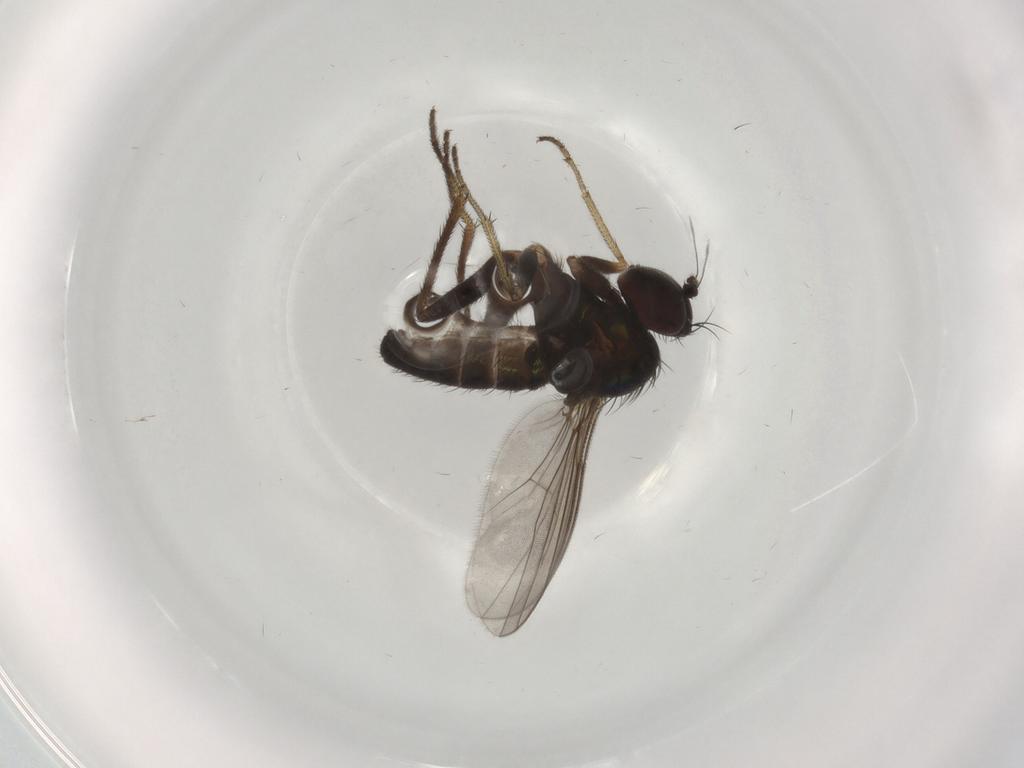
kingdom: Animalia
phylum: Arthropoda
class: Insecta
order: Diptera
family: Dolichopodidae
